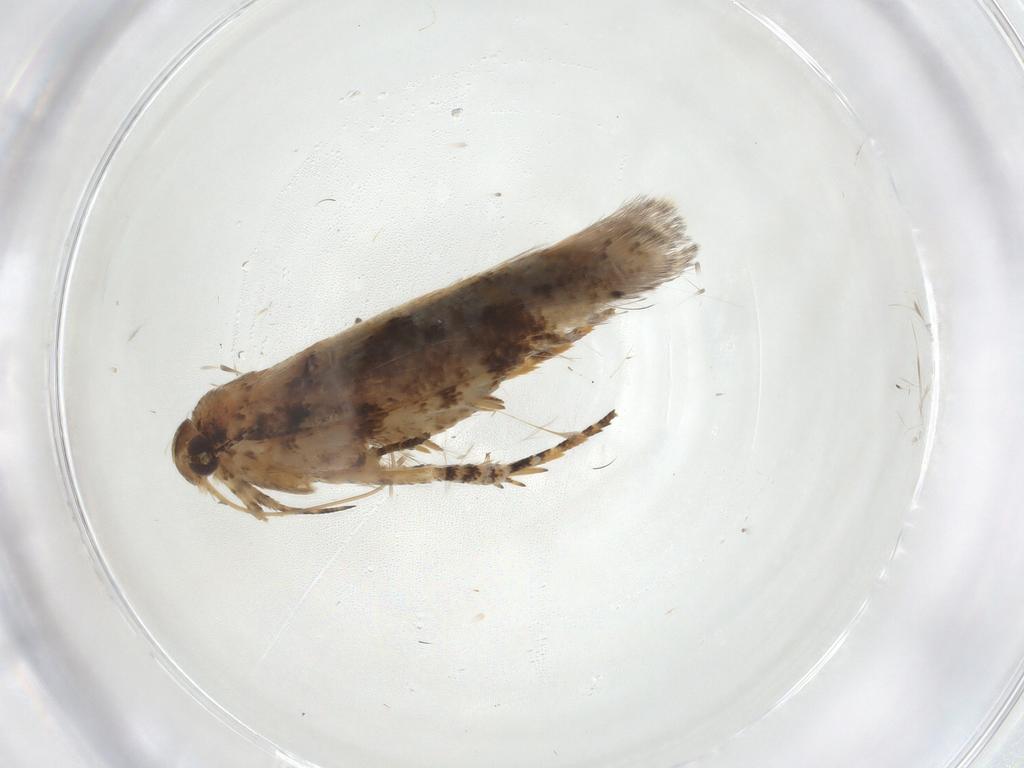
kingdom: Animalia
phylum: Arthropoda
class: Insecta
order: Lepidoptera
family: Gelechiidae
